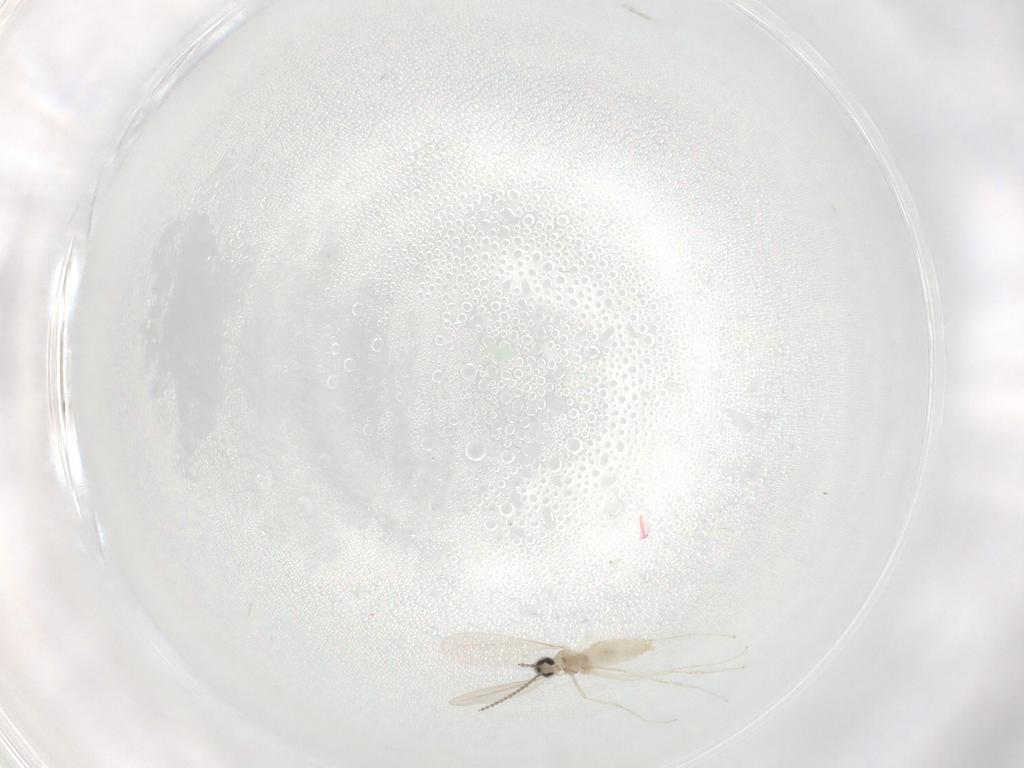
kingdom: Animalia
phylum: Arthropoda
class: Insecta
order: Diptera
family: Cecidomyiidae
